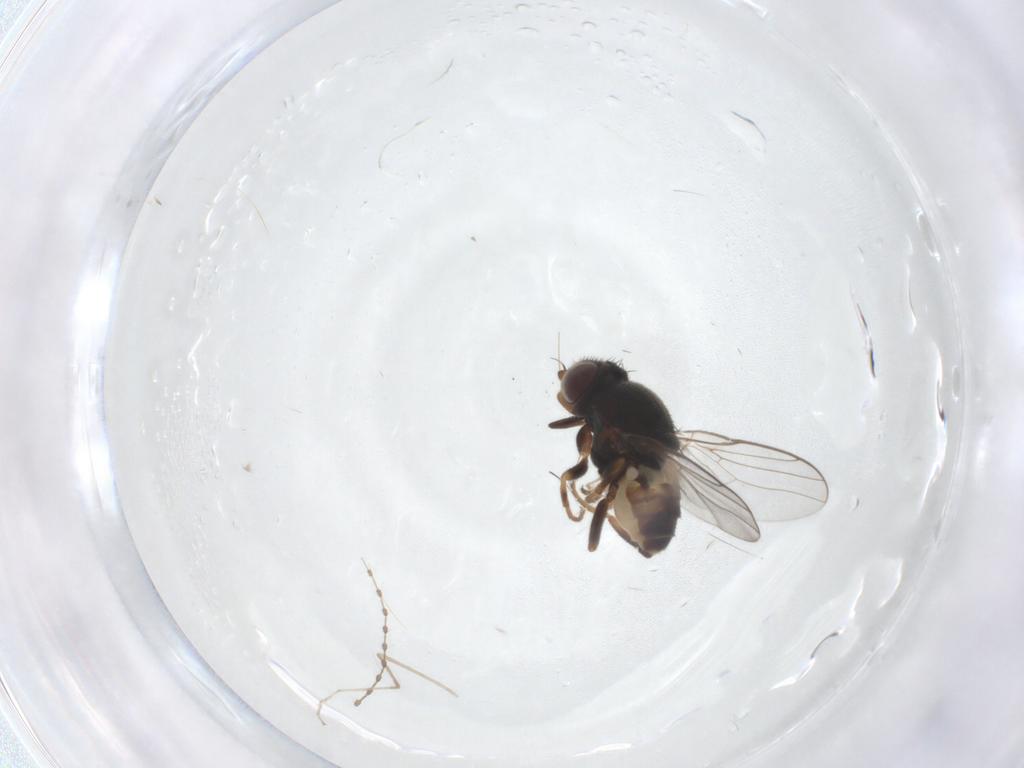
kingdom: Animalia
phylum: Arthropoda
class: Insecta
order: Diptera
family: Chloropidae
